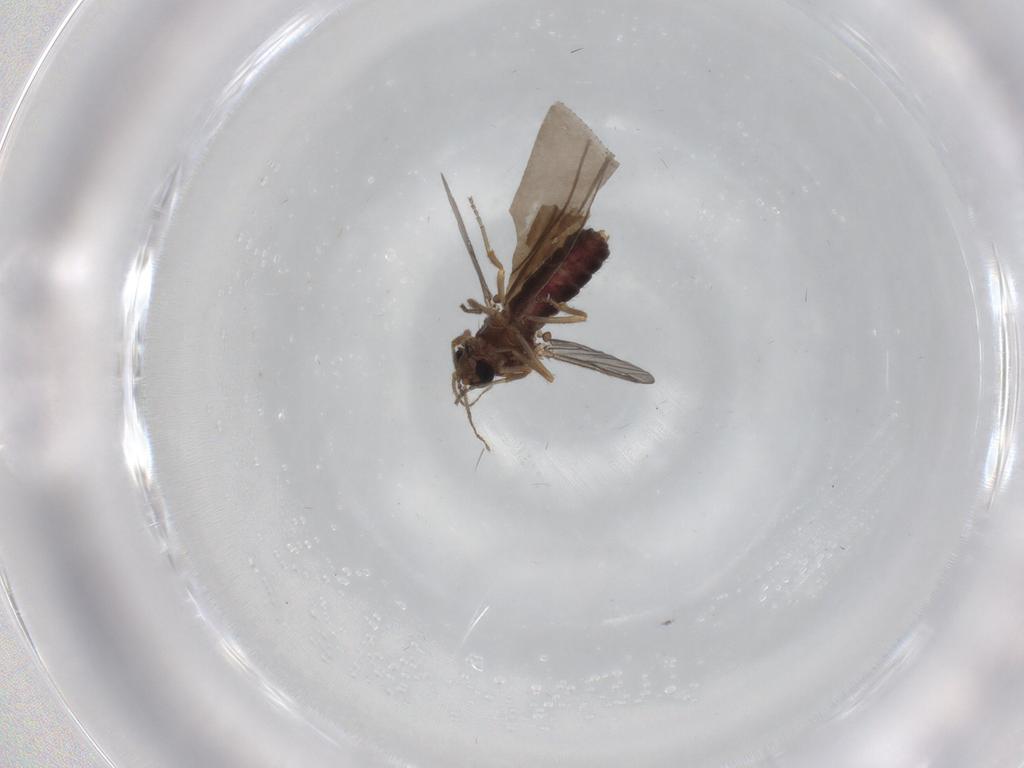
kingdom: Animalia
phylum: Arthropoda
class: Insecta
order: Diptera
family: Ceratopogonidae
